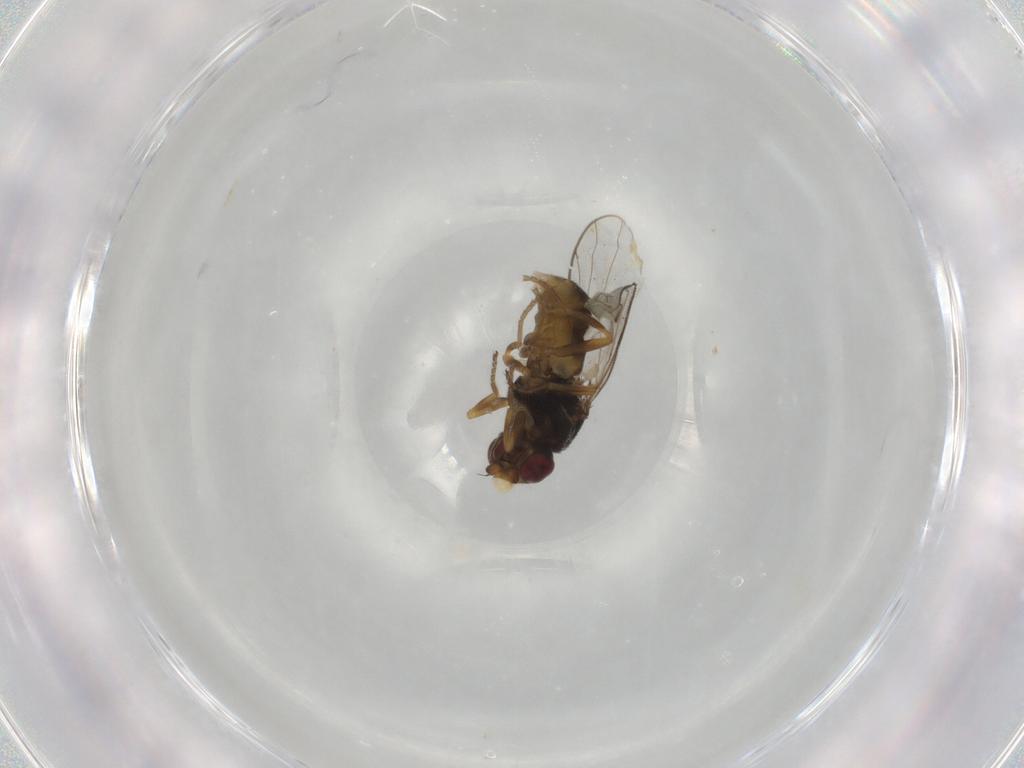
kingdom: Animalia
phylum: Arthropoda
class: Insecta
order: Diptera
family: Chloropidae
